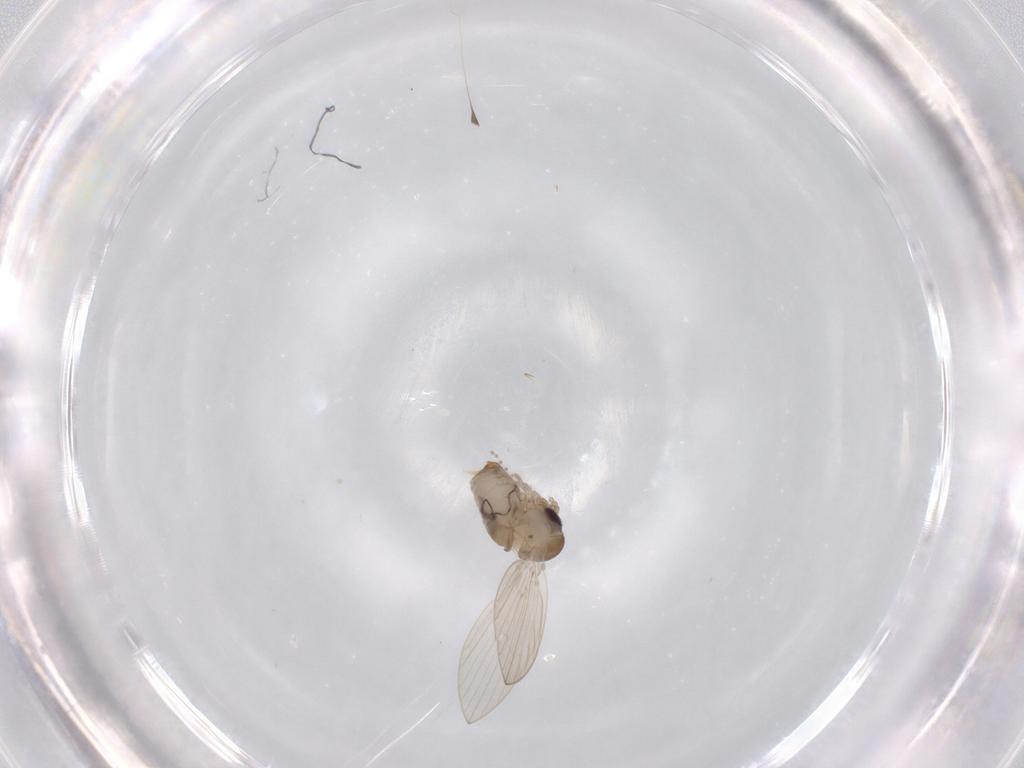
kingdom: Animalia
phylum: Arthropoda
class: Insecta
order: Diptera
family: Psychodidae
